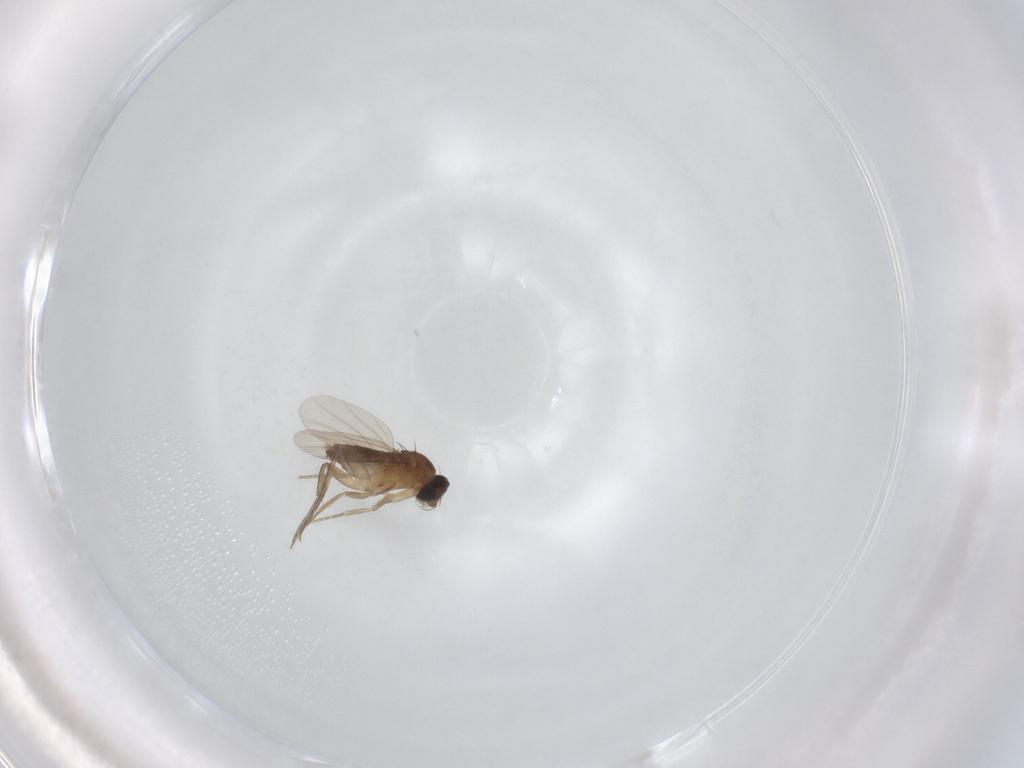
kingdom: Animalia
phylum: Arthropoda
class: Insecta
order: Diptera
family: Phoridae
